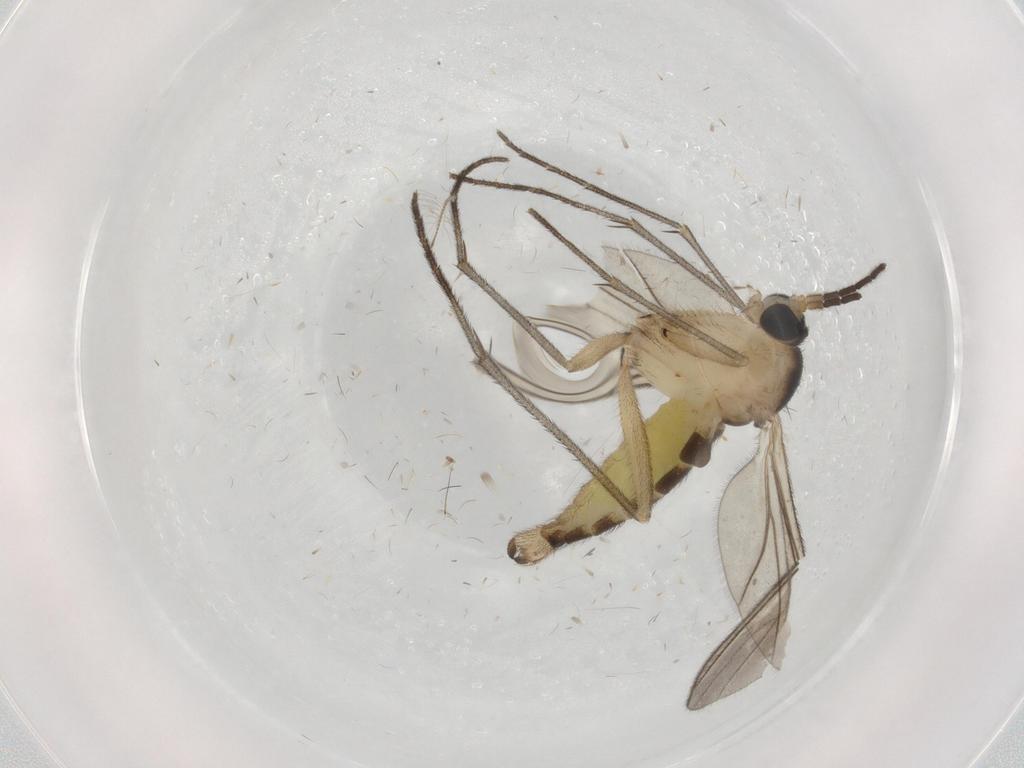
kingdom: Animalia
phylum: Arthropoda
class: Insecta
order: Diptera
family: Sciaridae
